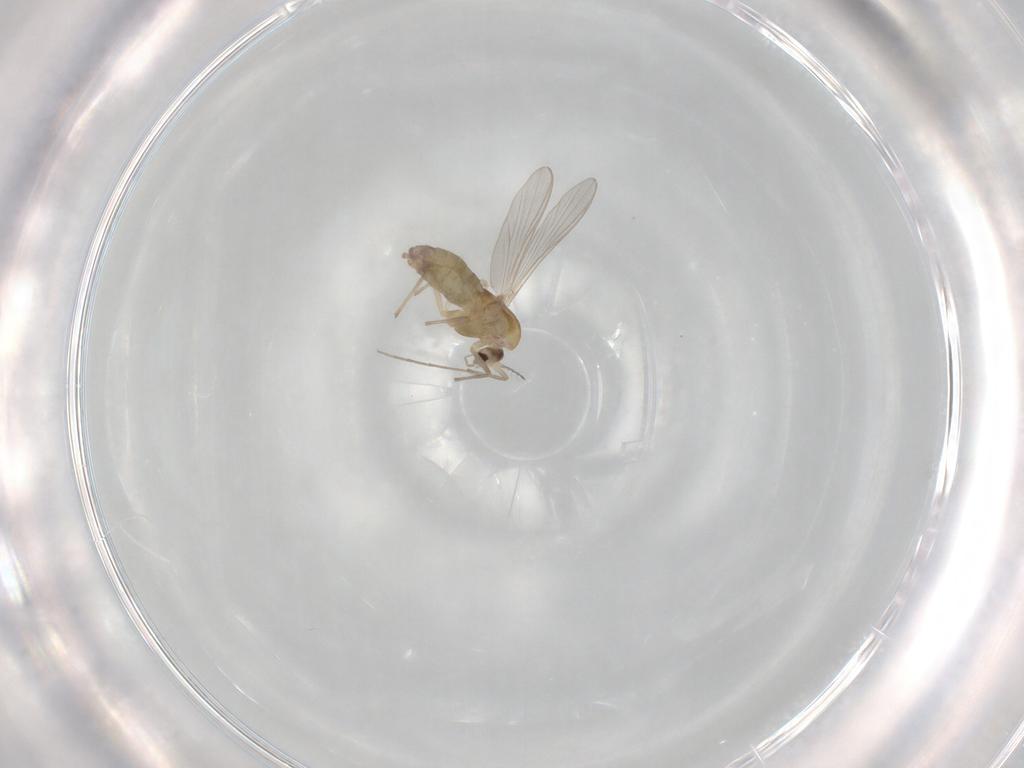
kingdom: Animalia
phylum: Arthropoda
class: Insecta
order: Diptera
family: Chironomidae
